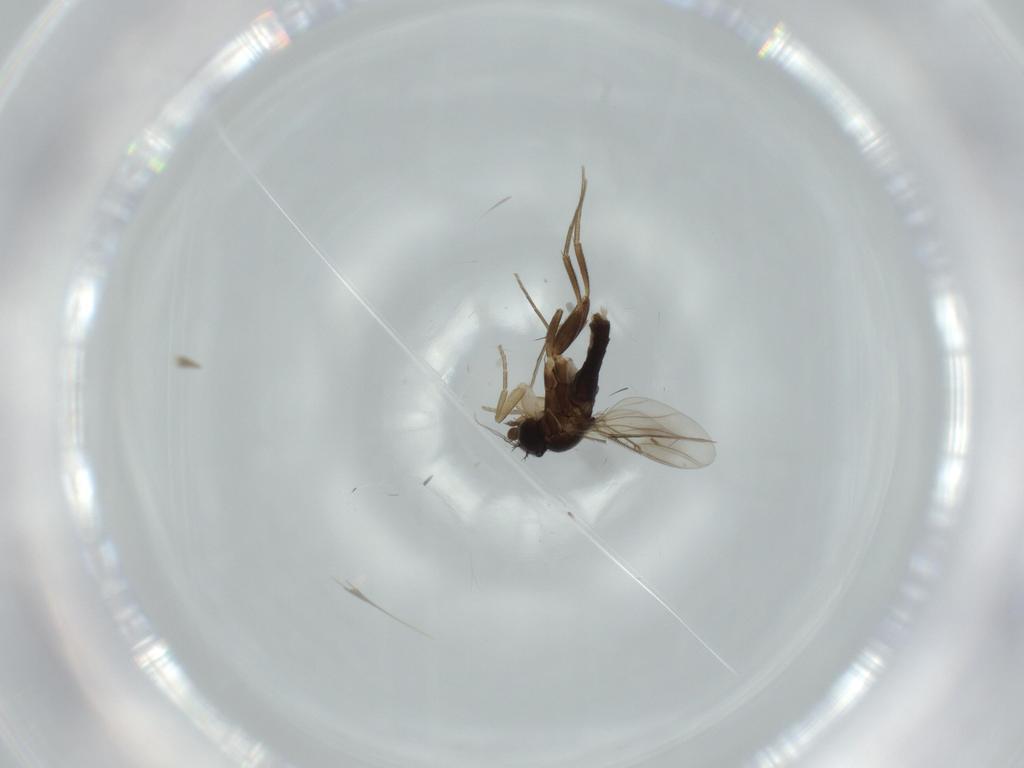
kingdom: Animalia
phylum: Arthropoda
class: Insecta
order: Diptera
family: Phoridae
